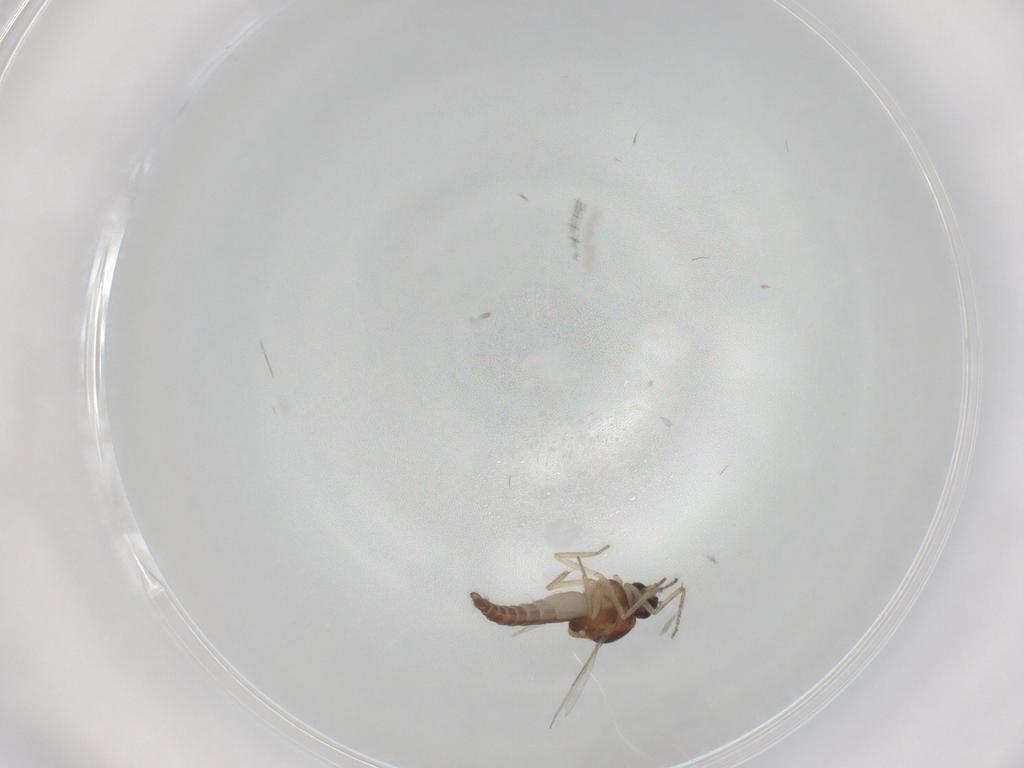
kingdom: Animalia
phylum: Arthropoda
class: Insecta
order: Diptera
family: Ceratopogonidae
